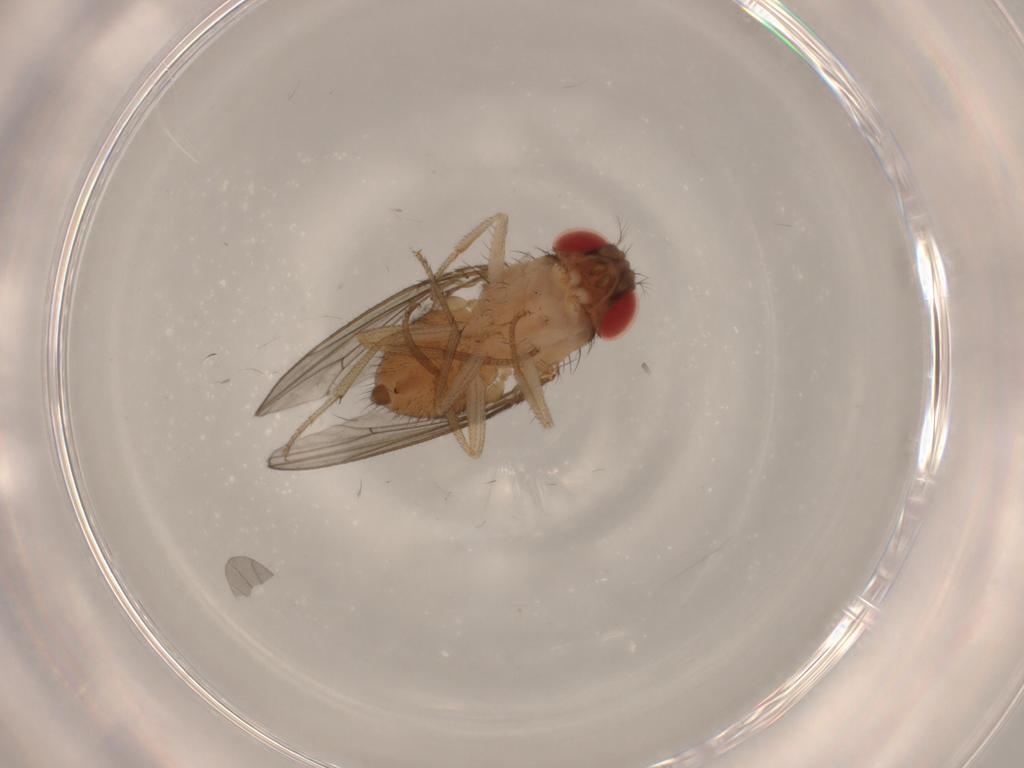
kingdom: Animalia
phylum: Arthropoda
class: Insecta
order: Diptera
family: Drosophilidae
